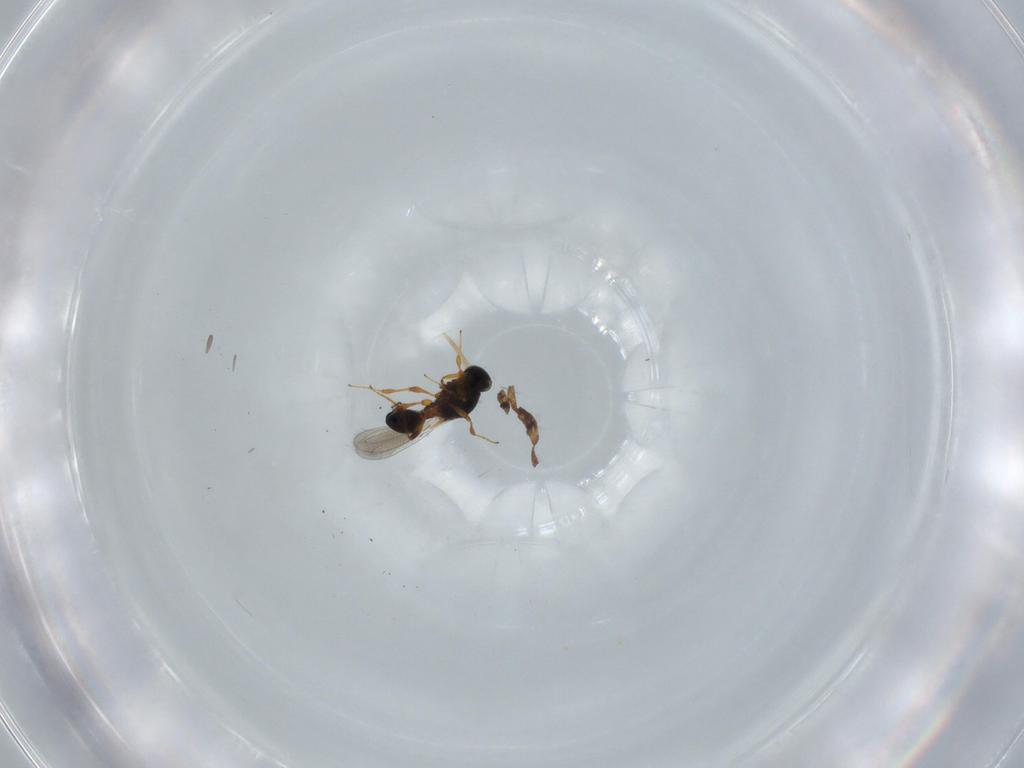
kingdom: Animalia
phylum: Arthropoda
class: Insecta
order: Hymenoptera
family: Platygastridae
